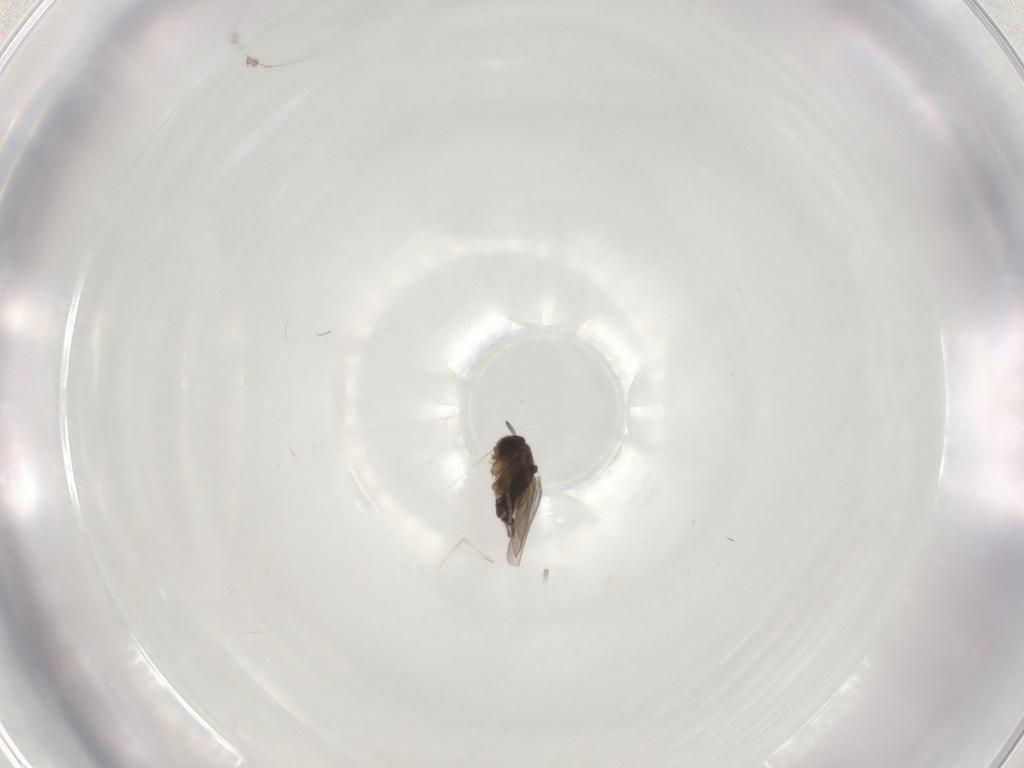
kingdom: Animalia
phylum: Arthropoda
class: Insecta
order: Diptera
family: Phoridae
